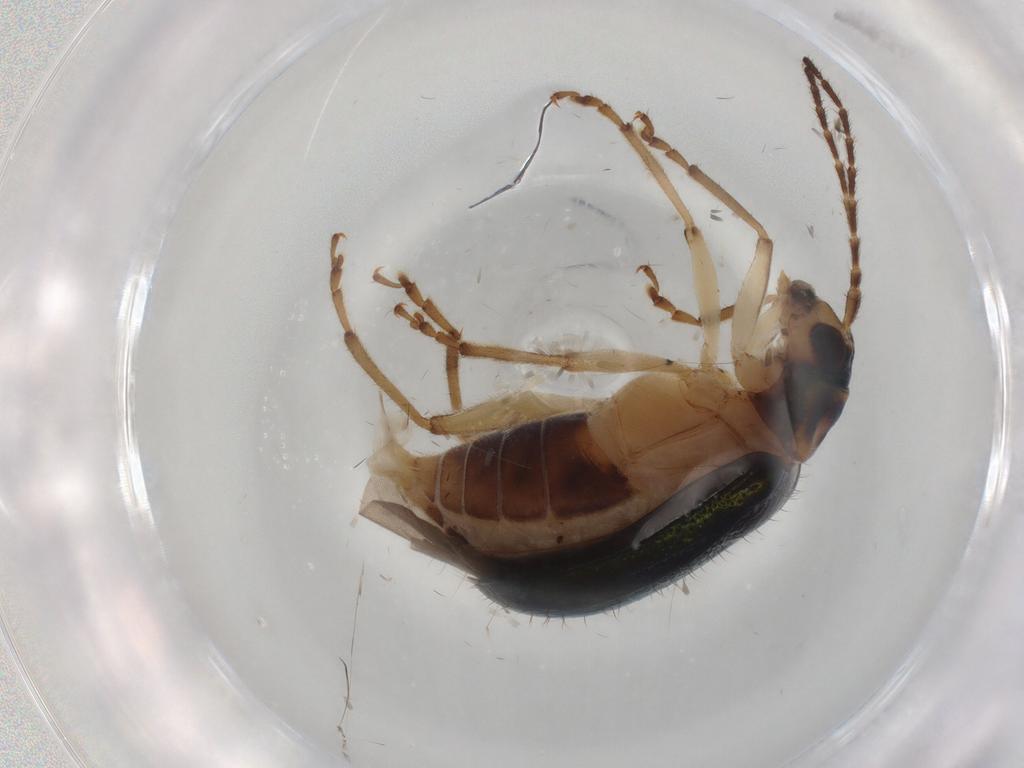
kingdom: Animalia
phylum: Arthropoda
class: Insecta
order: Coleoptera
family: Chrysomelidae
